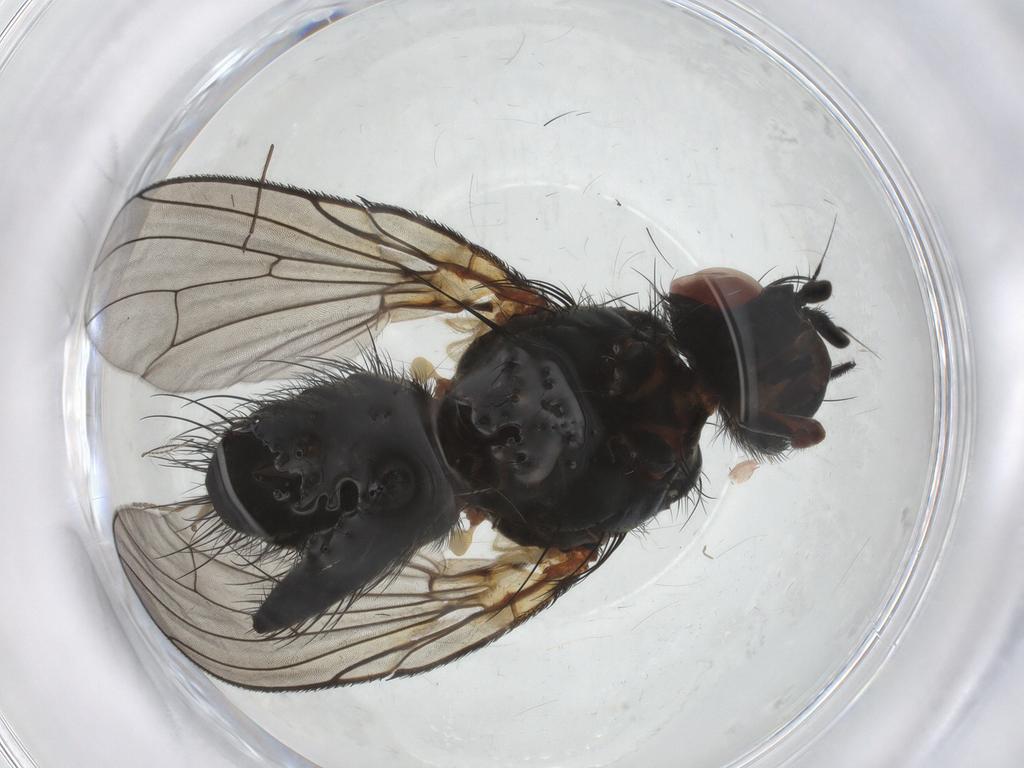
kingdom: Animalia
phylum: Arthropoda
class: Insecta
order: Diptera
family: Anthomyiidae
